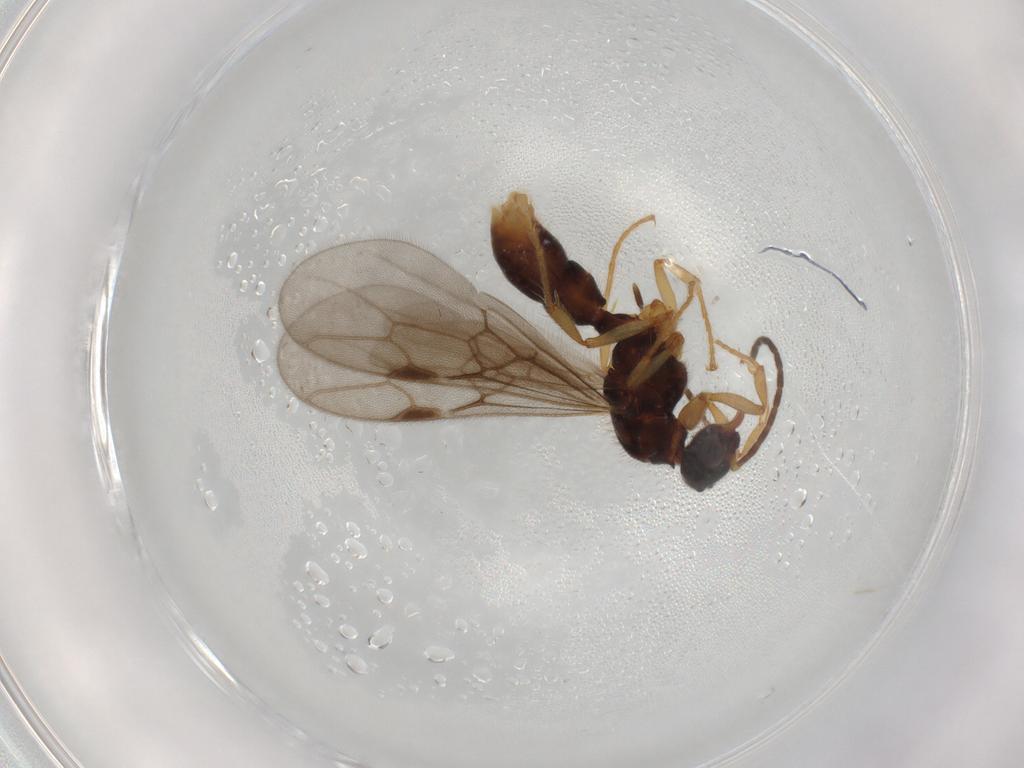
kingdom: Animalia
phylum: Arthropoda
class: Insecta
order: Hymenoptera
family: Formicidae
